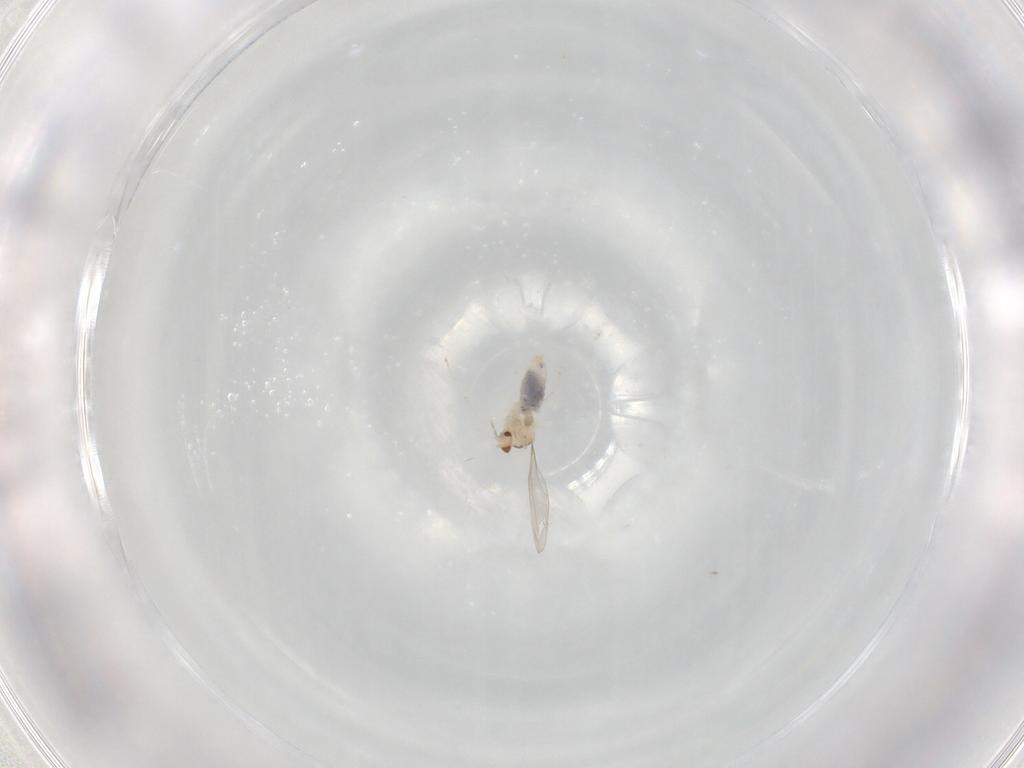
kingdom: Animalia
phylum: Arthropoda
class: Insecta
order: Diptera
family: Cecidomyiidae
